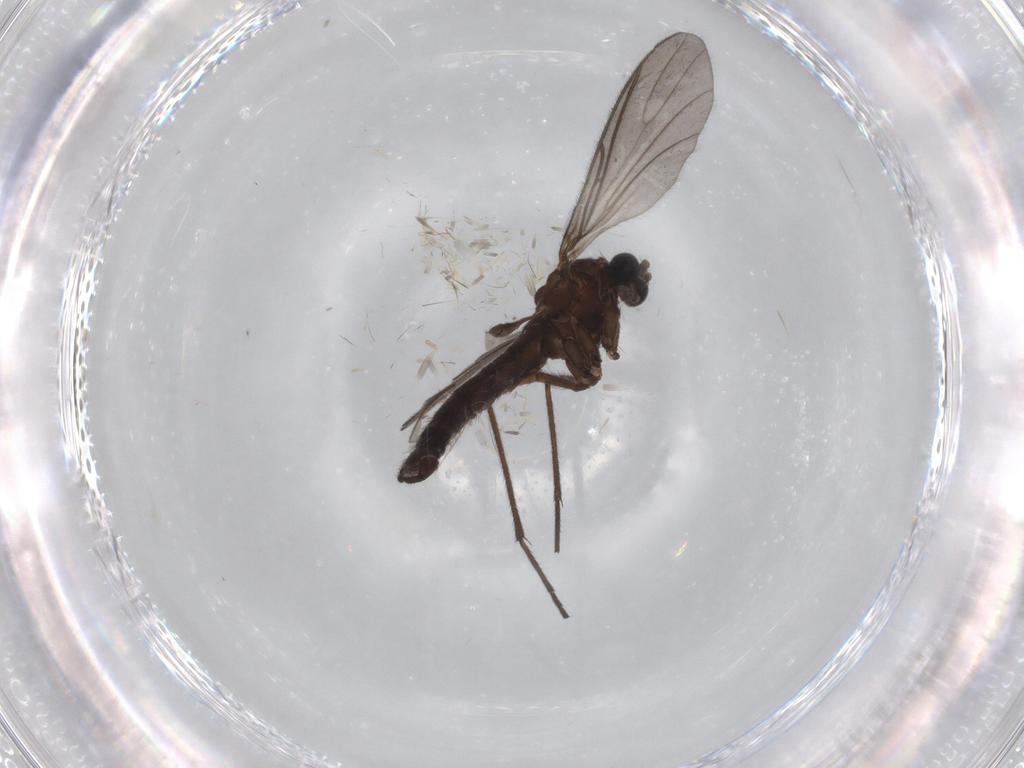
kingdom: Animalia
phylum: Arthropoda
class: Insecta
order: Diptera
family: Sciaridae
